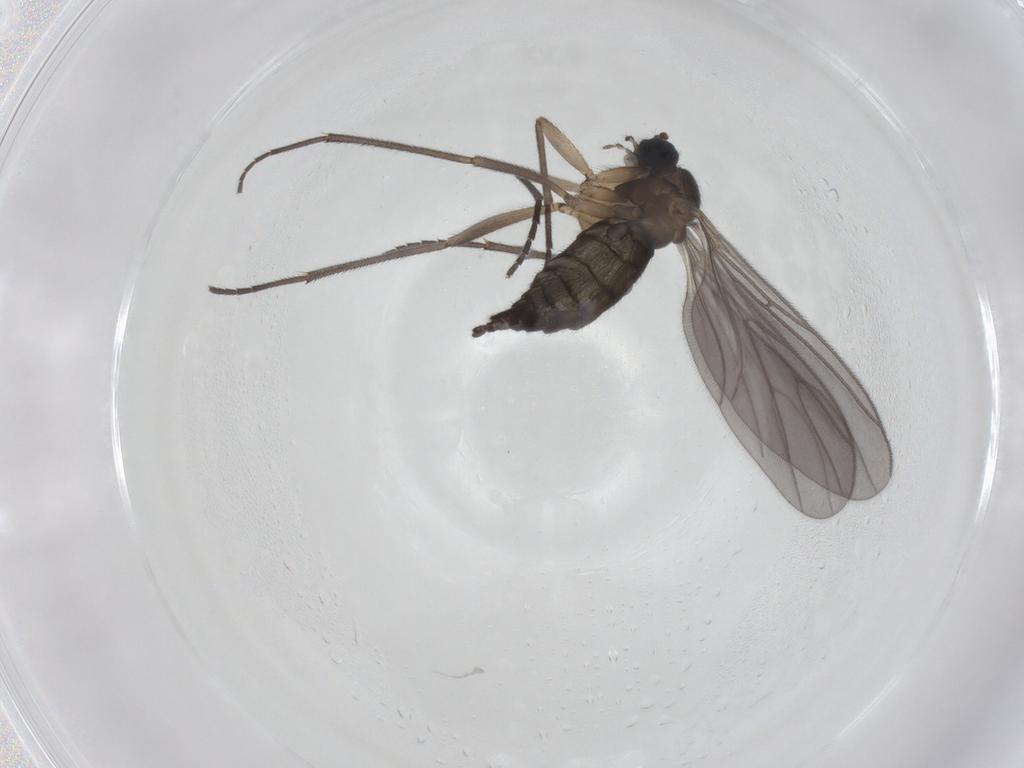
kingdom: Animalia
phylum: Arthropoda
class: Insecta
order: Diptera
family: Sciaridae
